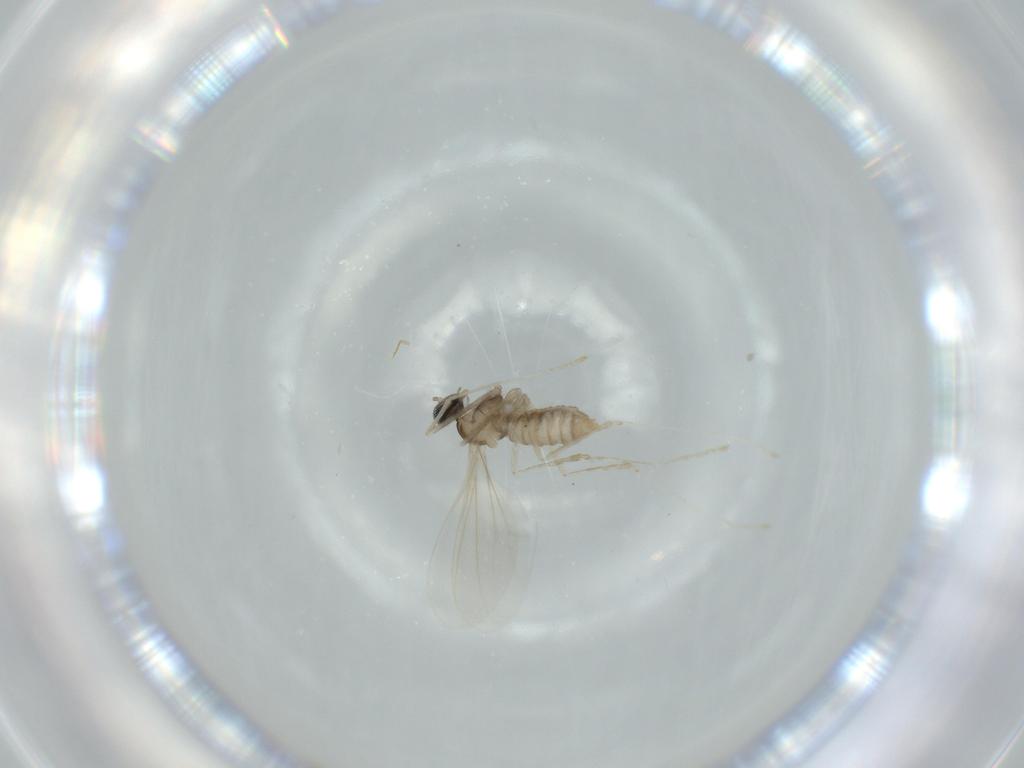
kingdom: Animalia
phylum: Arthropoda
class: Insecta
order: Diptera
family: Cecidomyiidae
